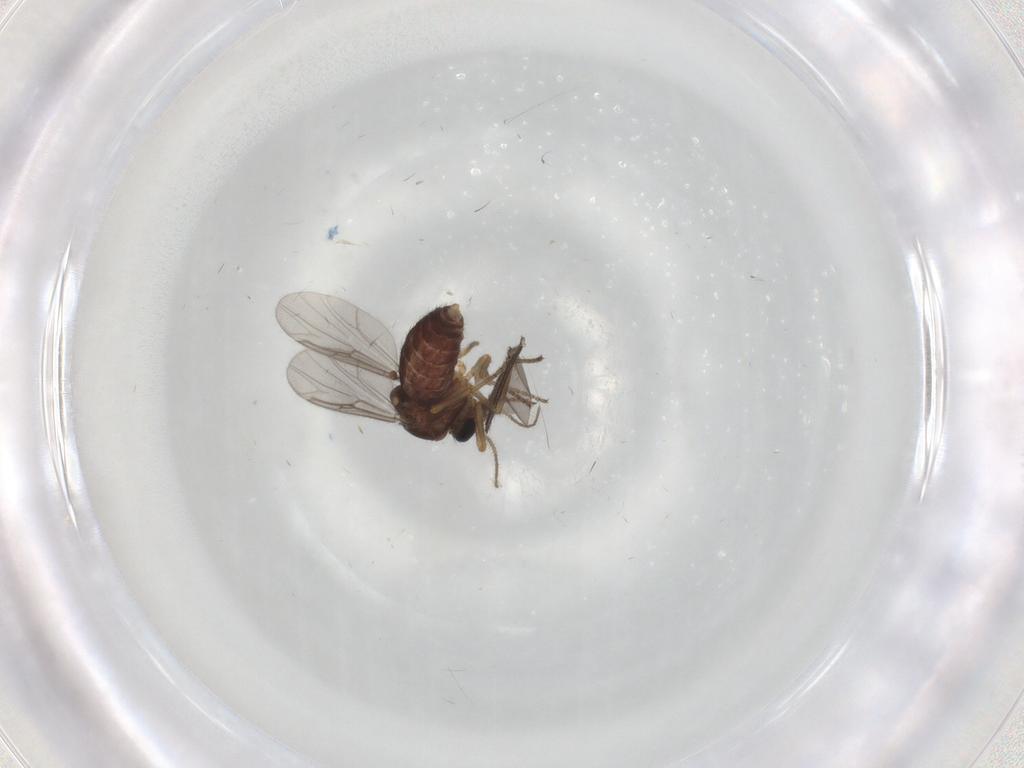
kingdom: Animalia
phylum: Arthropoda
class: Insecta
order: Diptera
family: Ceratopogonidae
